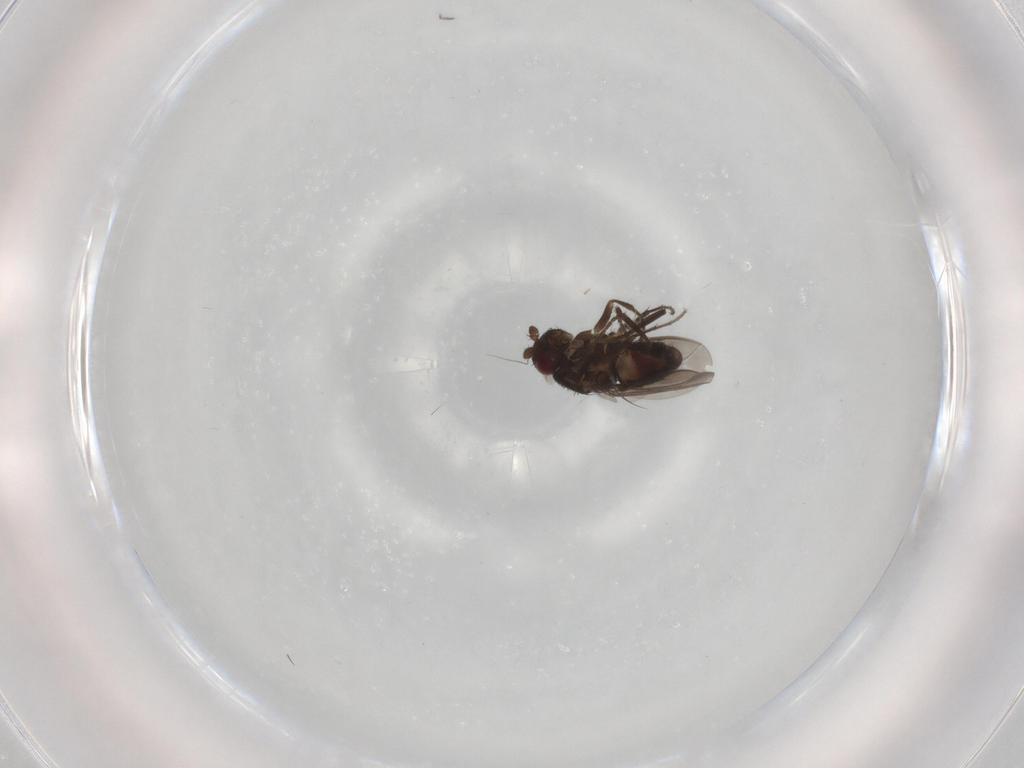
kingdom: Animalia
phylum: Arthropoda
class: Insecta
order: Diptera
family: Sphaeroceridae
